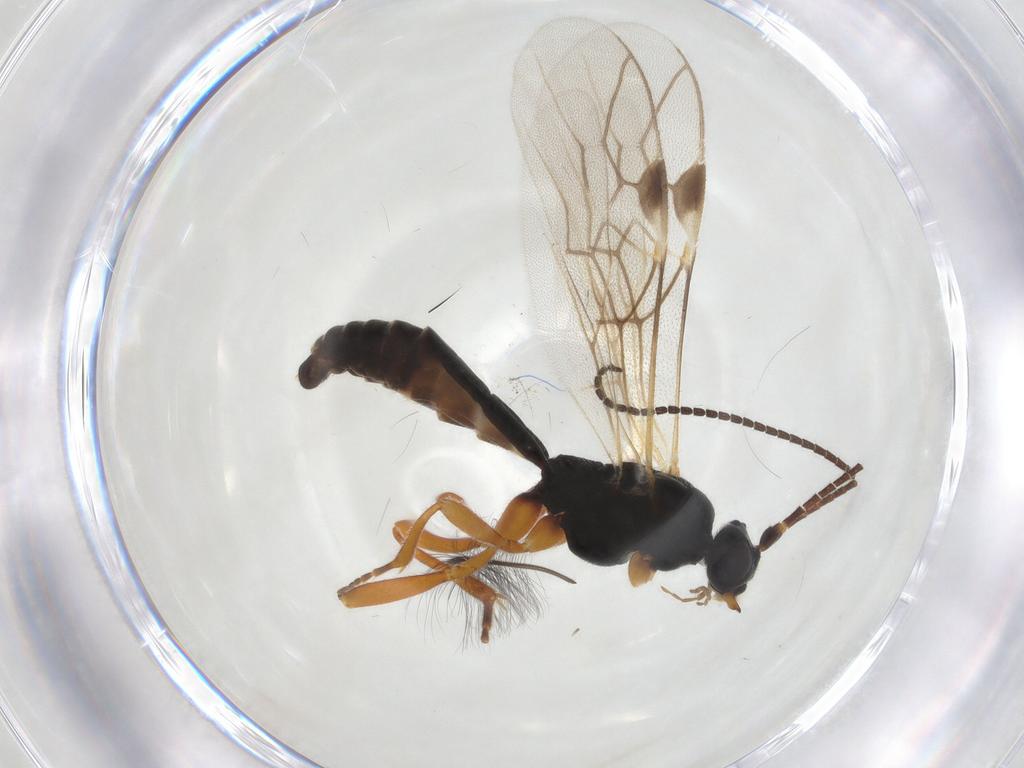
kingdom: Animalia
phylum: Arthropoda
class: Insecta
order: Hymenoptera
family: Braconidae
